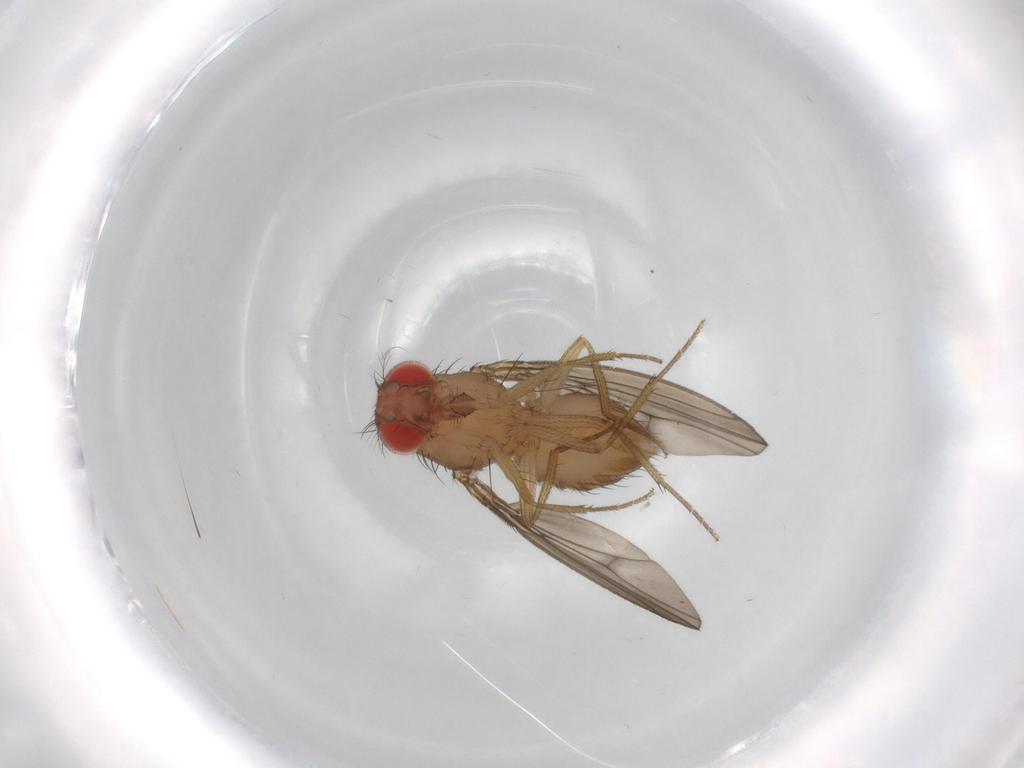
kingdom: Animalia
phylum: Arthropoda
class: Insecta
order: Diptera
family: Drosophilidae
